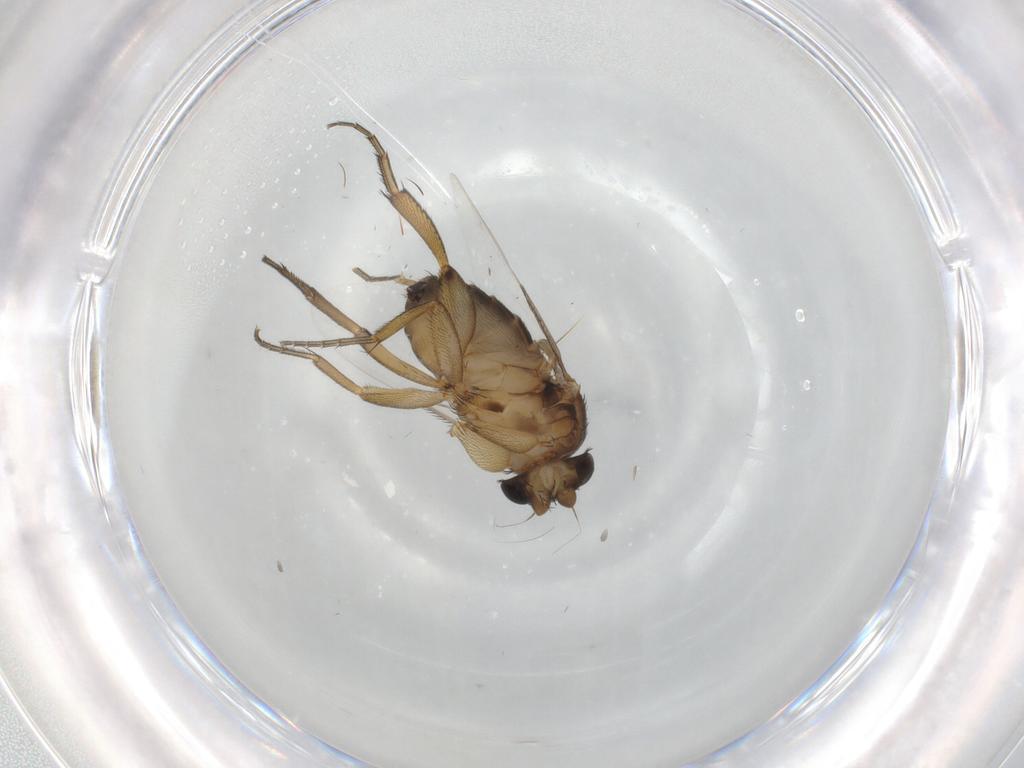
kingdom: Animalia
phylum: Arthropoda
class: Insecta
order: Diptera
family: Phoridae
